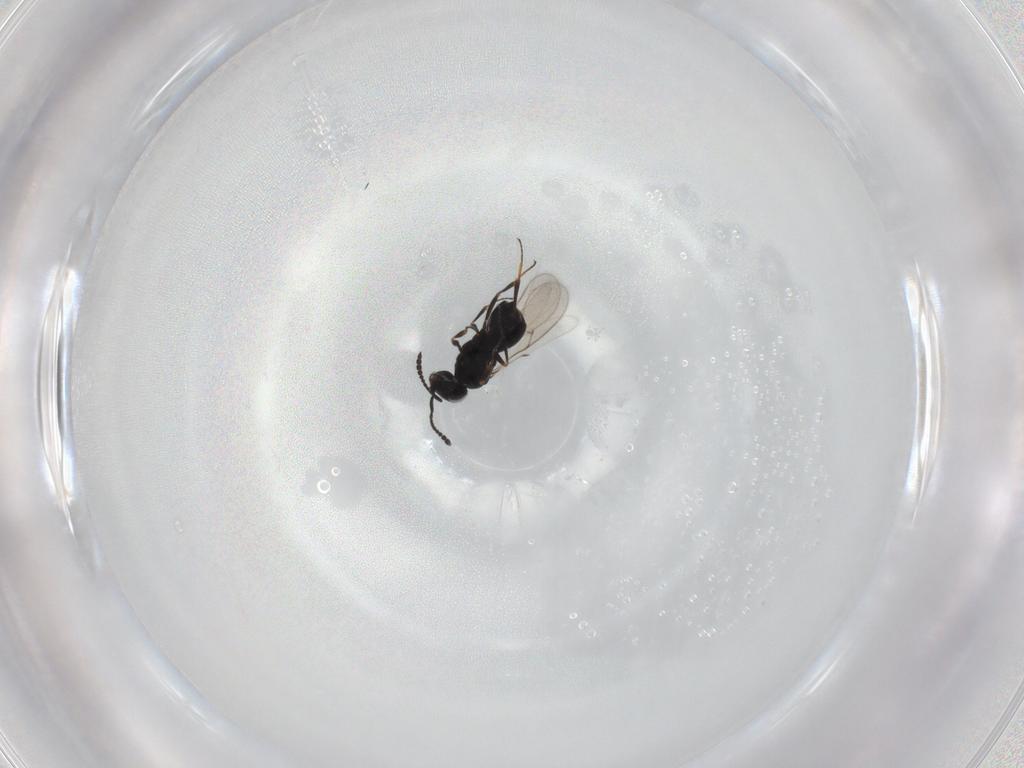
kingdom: Animalia
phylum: Arthropoda
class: Insecta
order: Hymenoptera
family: Scelionidae
